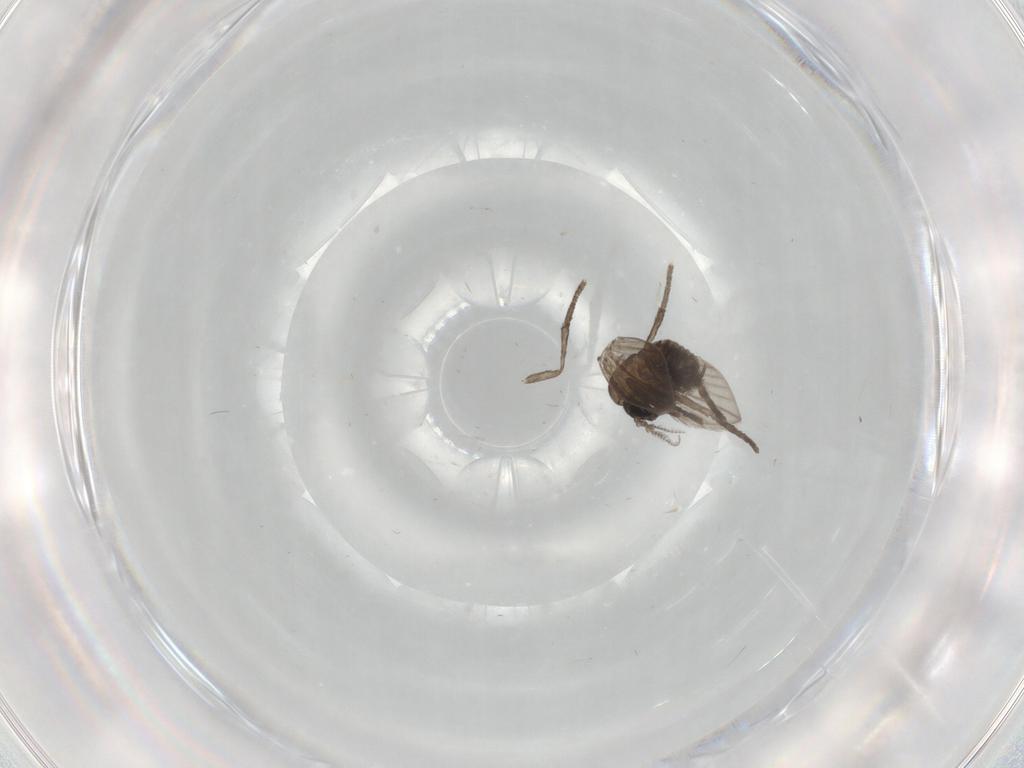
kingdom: Animalia
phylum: Arthropoda
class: Insecta
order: Diptera
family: Psychodidae
